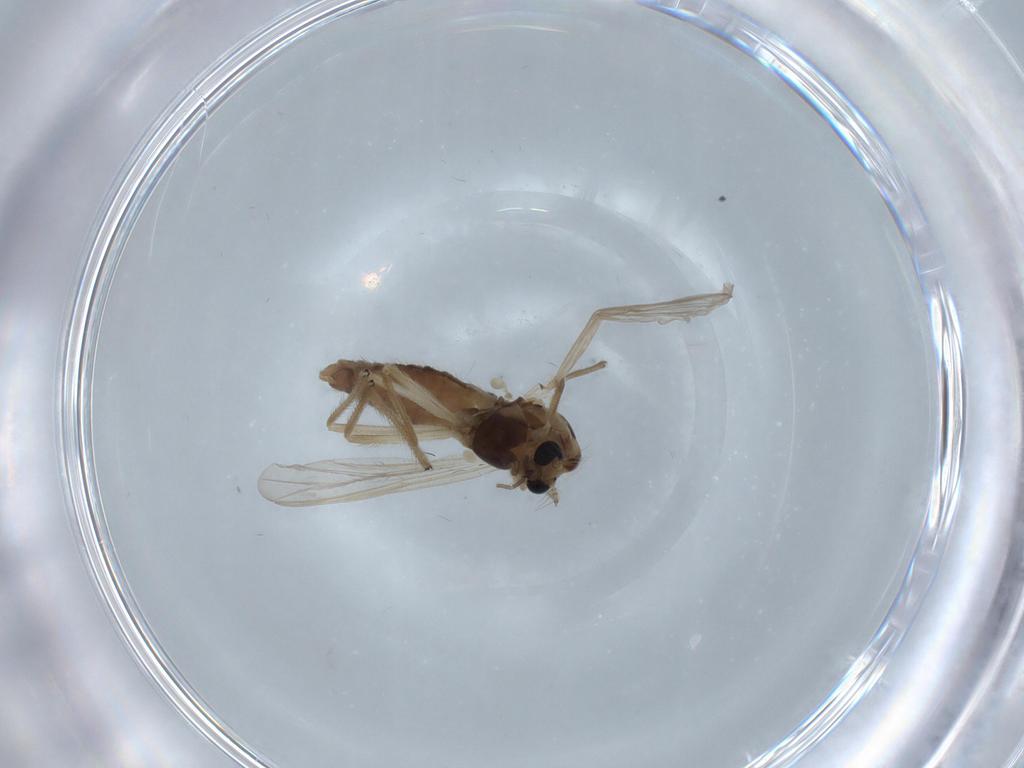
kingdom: Animalia
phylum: Arthropoda
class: Insecta
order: Diptera
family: Chironomidae
